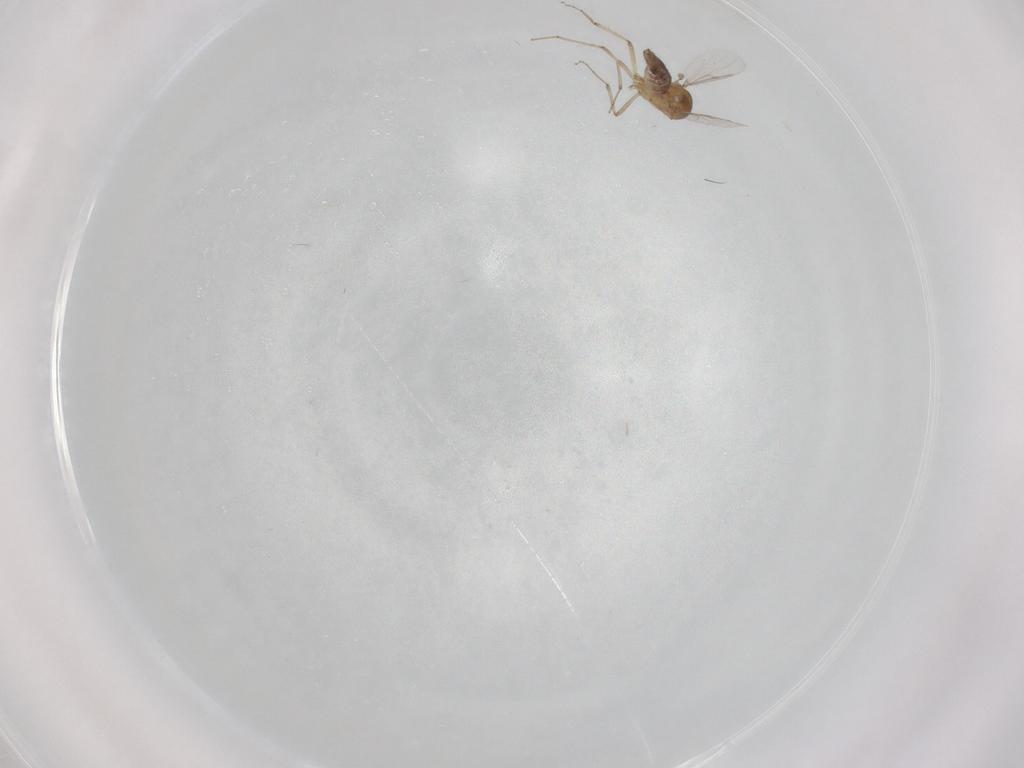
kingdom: Animalia
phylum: Arthropoda
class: Insecta
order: Diptera
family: Ceratopogonidae
